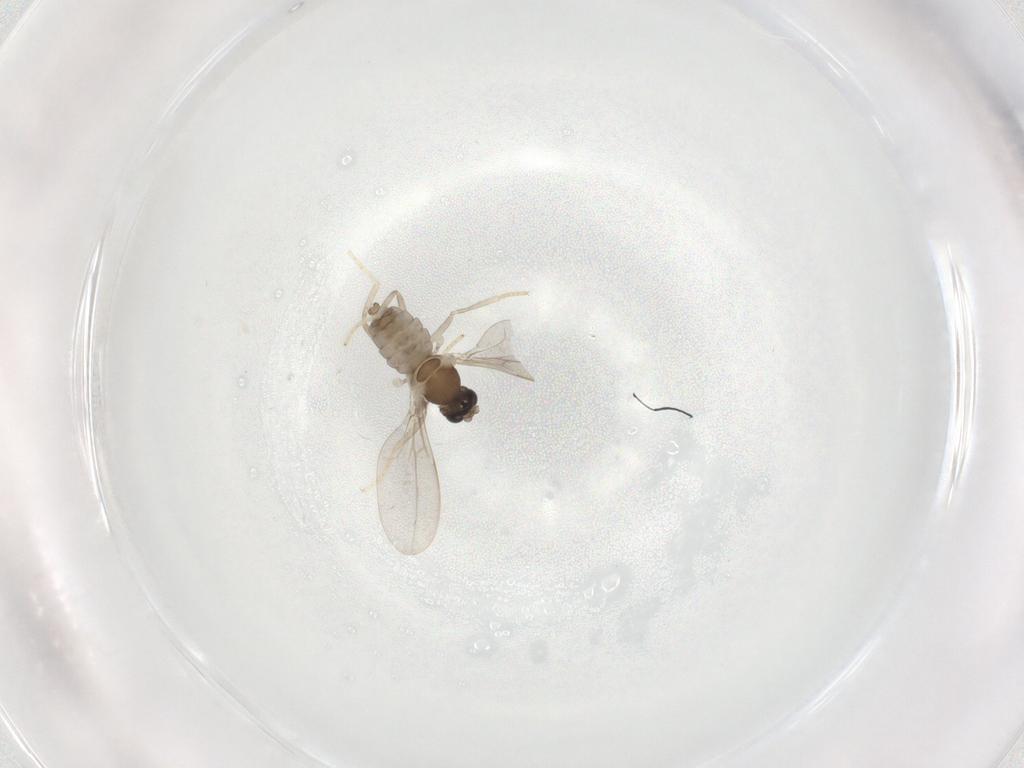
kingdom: Animalia
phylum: Arthropoda
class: Insecta
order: Diptera
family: Cecidomyiidae
